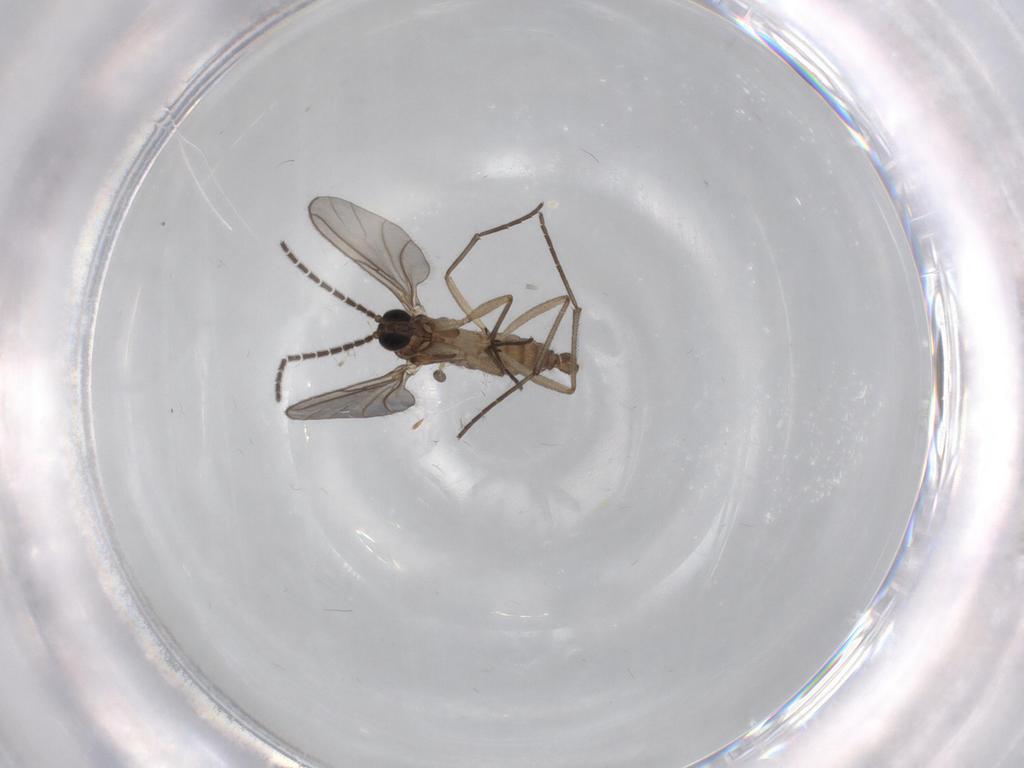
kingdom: Animalia
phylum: Arthropoda
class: Insecta
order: Diptera
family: Sciaridae
